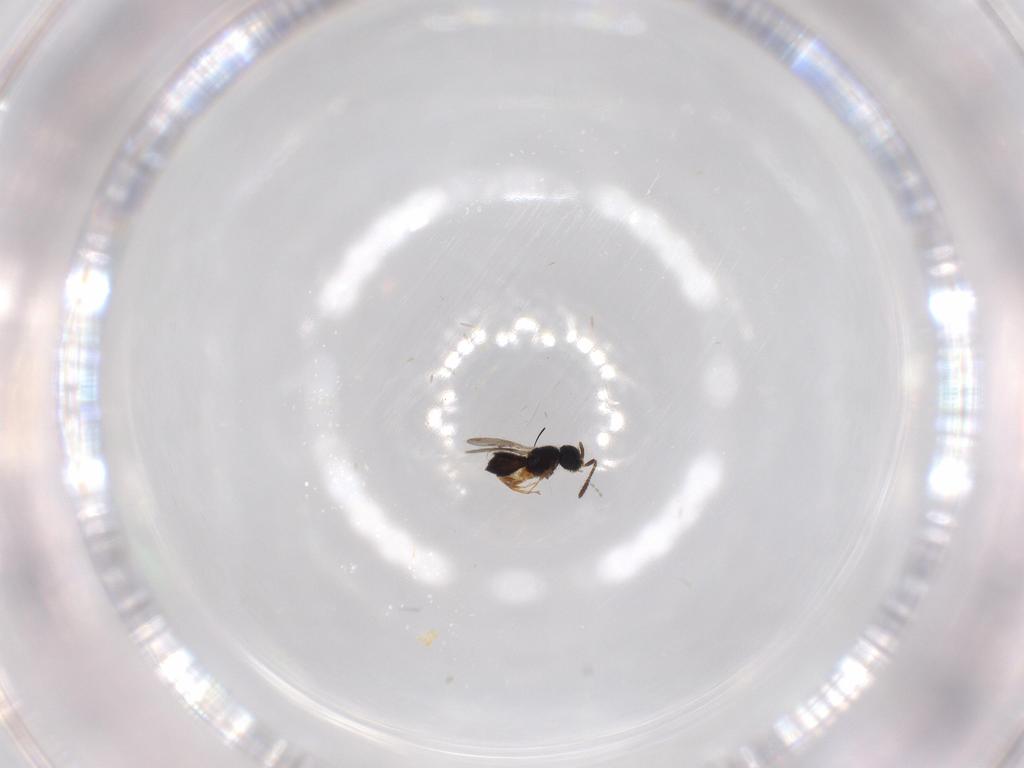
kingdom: Animalia
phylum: Arthropoda
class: Insecta
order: Hymenoptera
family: Scelionidae
